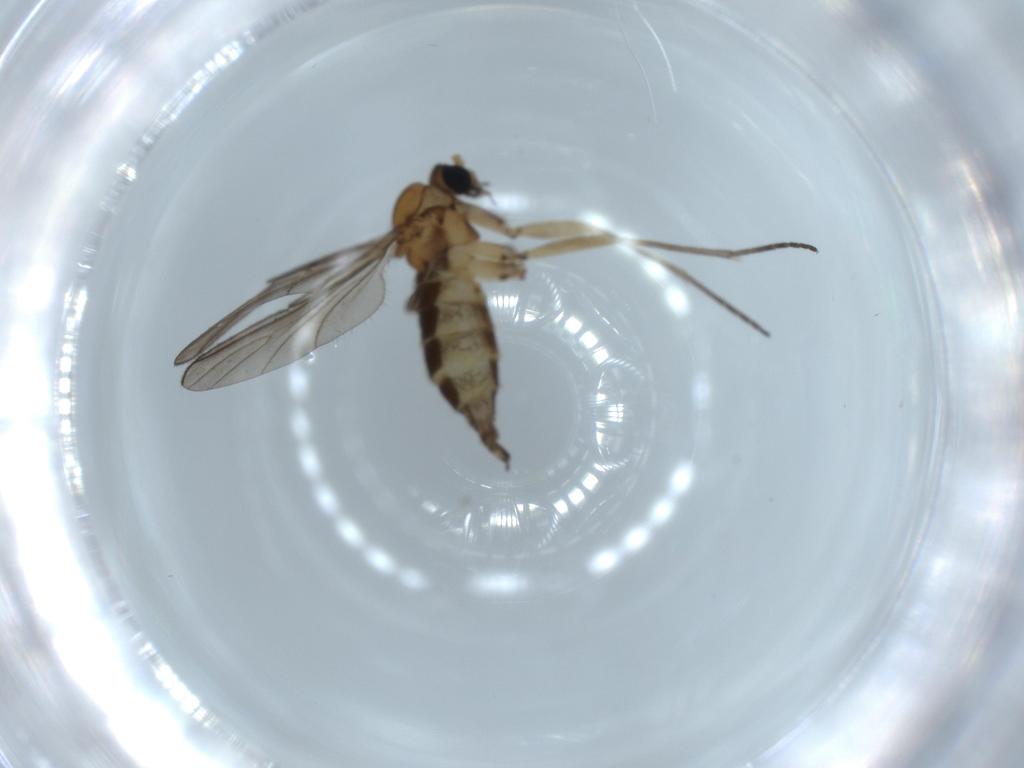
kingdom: Animalia
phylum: Arthropoda
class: Insecta
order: Diptera
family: Sciaridae
